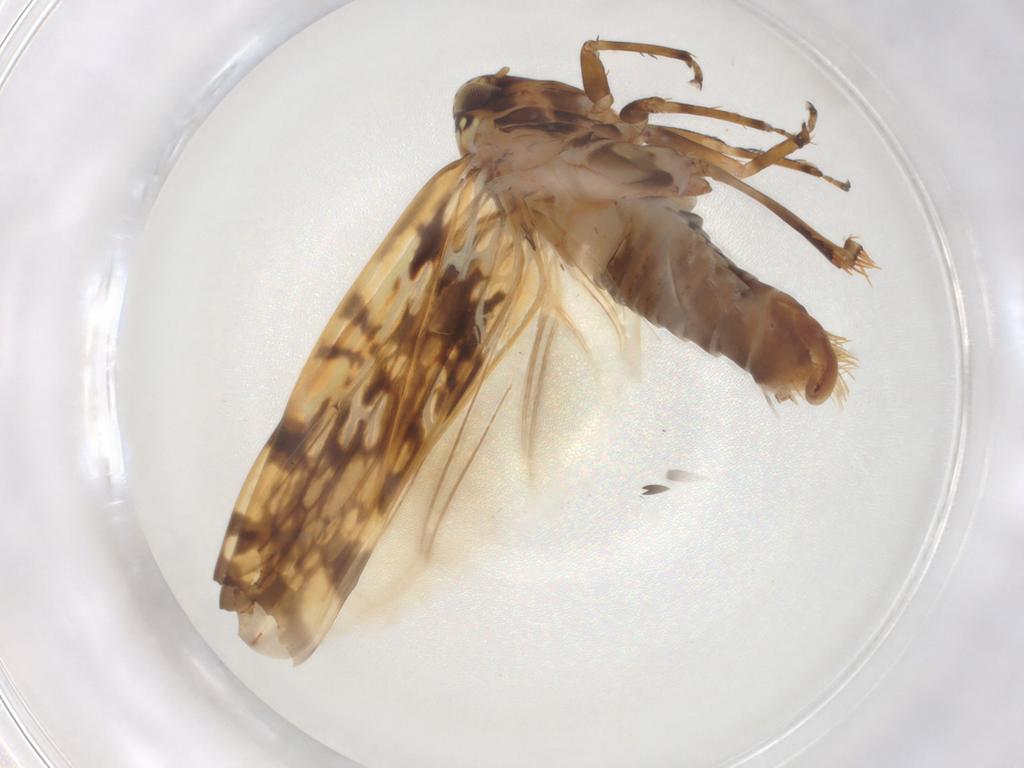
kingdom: Animalia
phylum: Arthropoda
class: Insecta
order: Hemiptera
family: Cicadellidae
